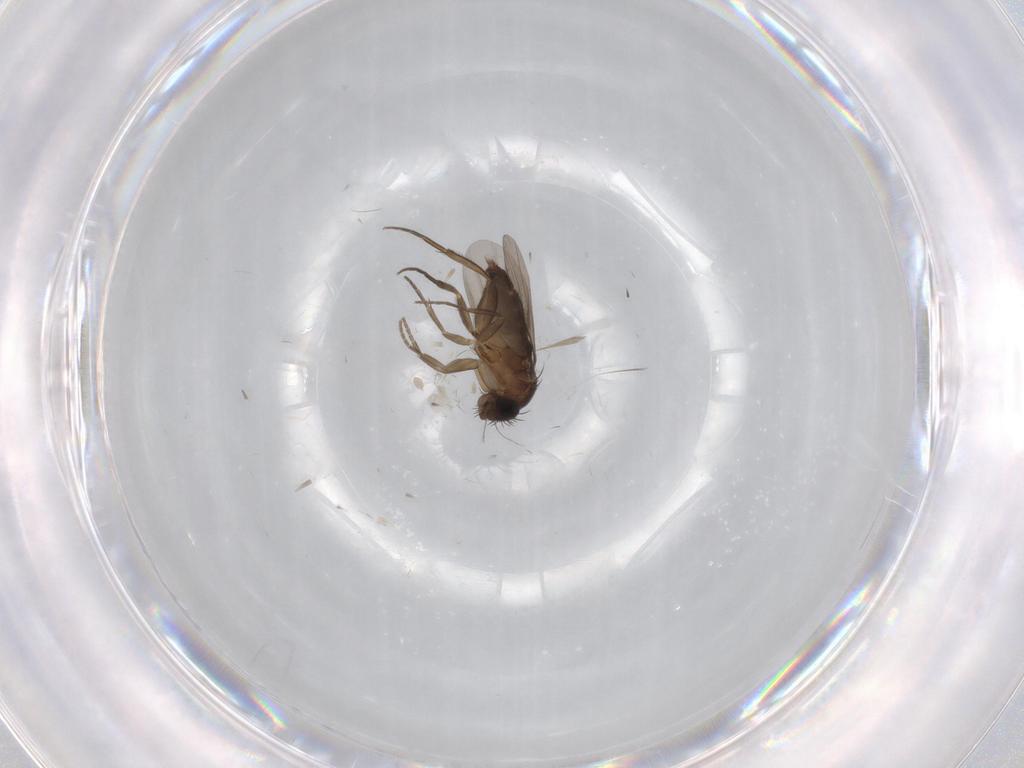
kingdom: Animalia
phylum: Arthropoda
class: Insecta
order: Diptera
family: Phoridae
